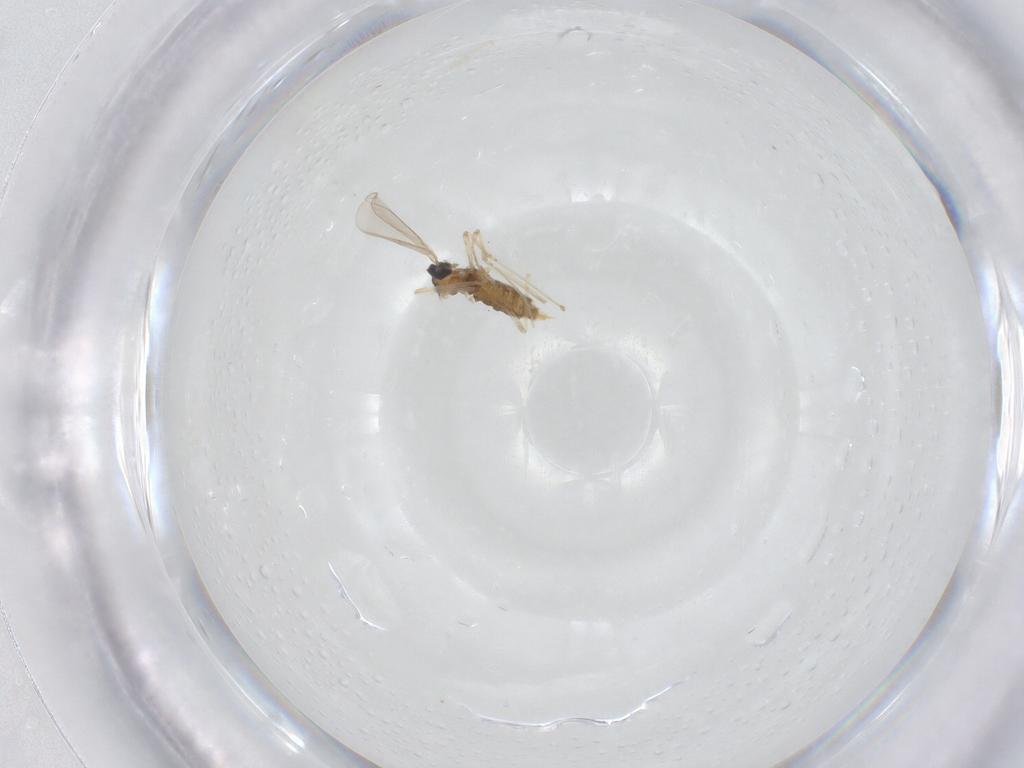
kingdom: Animalia
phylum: Arthropoda
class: Insecta
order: Diptera
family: Cecidomyiidae
